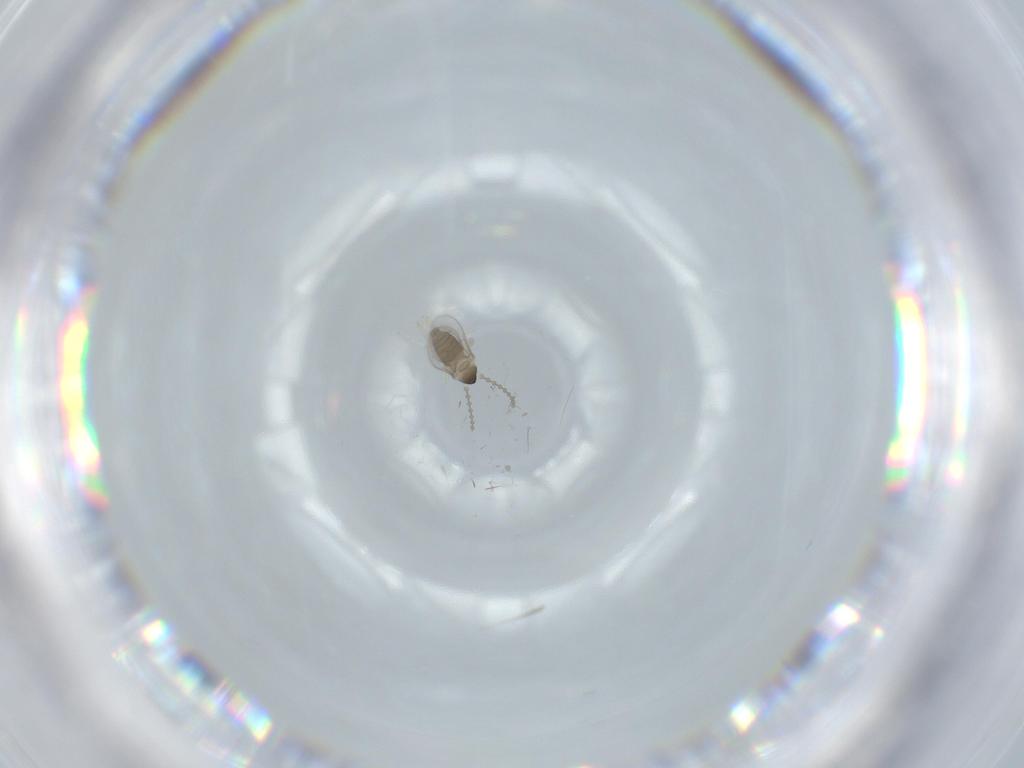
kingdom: Animalia
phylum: Arthropoda
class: Insecta
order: Diptera
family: Cecidomyiidae
